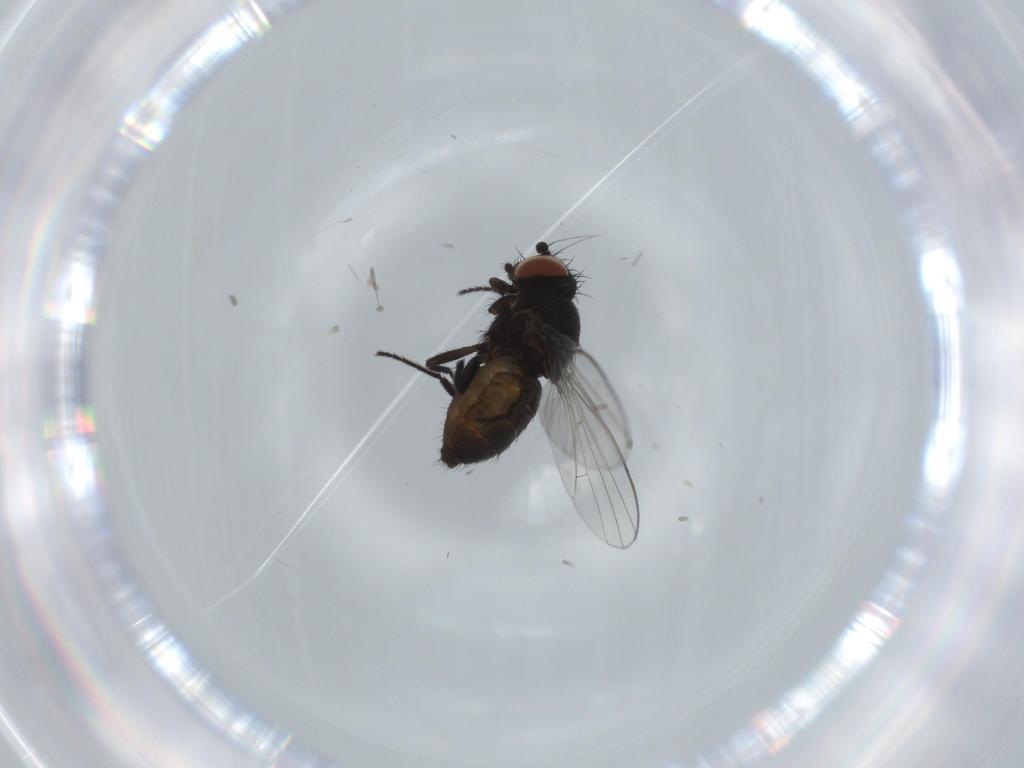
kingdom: Animalia
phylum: Arthropoda
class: Insecta
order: Diptera
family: Milichiidae
